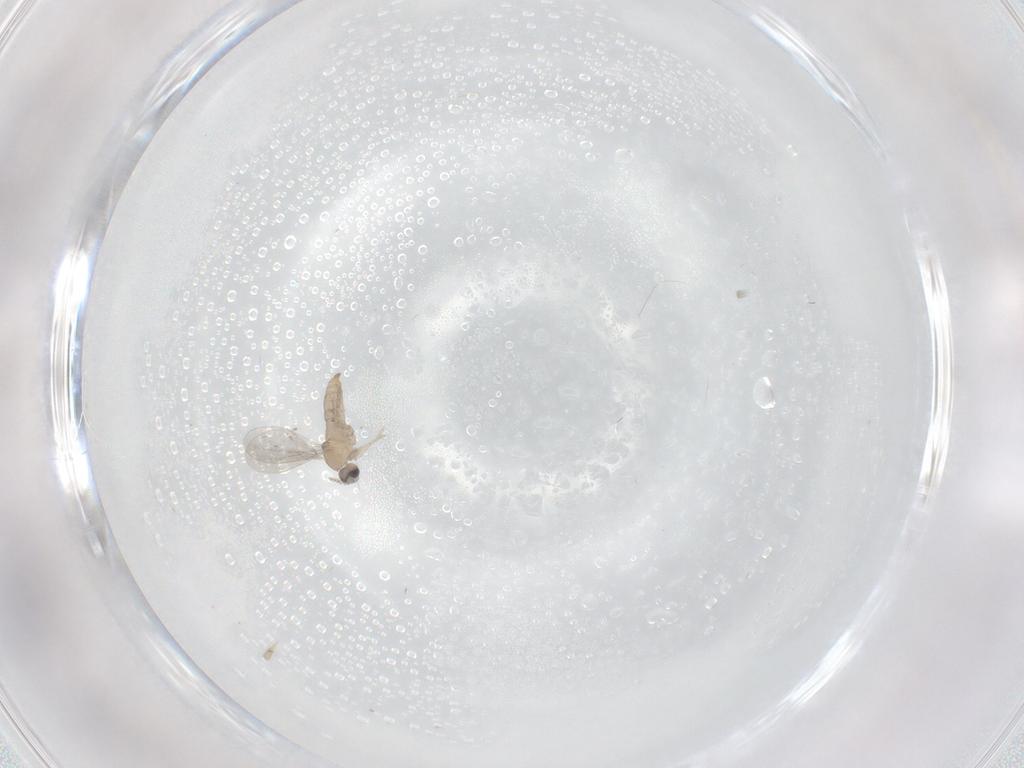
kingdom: Animalia
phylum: Arthropoda
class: Insecta
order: Diptera
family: Cecidomyiidae
